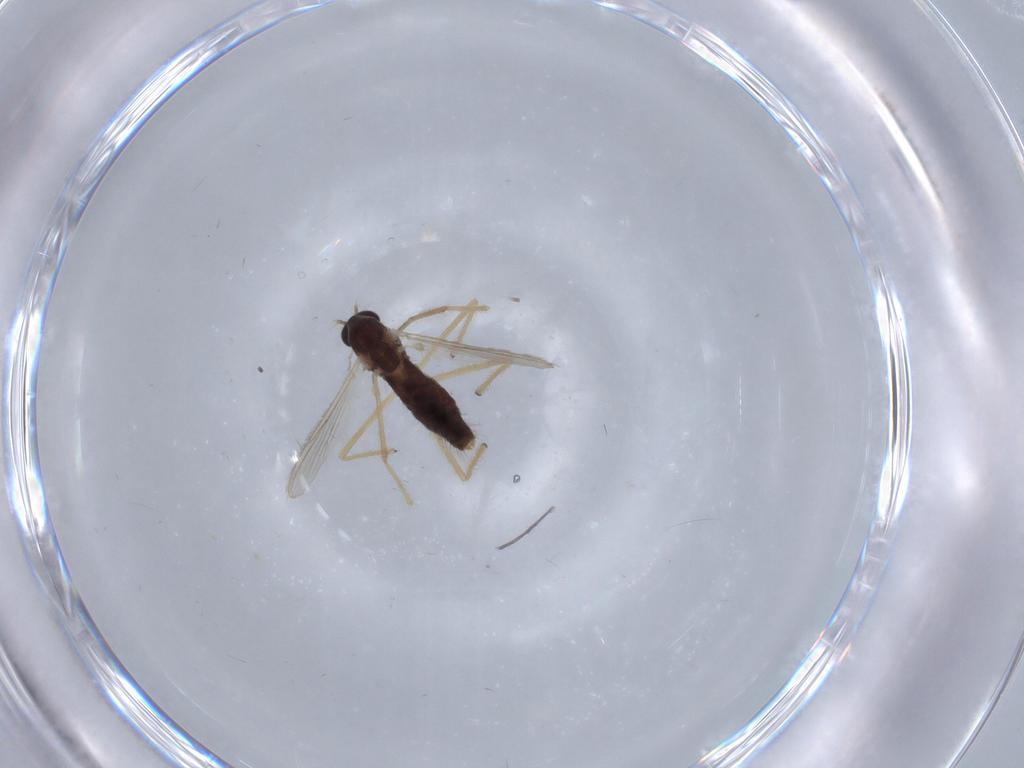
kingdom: Animalia
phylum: Arthropoda
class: Insecta
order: Diptera
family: Chironomidae
